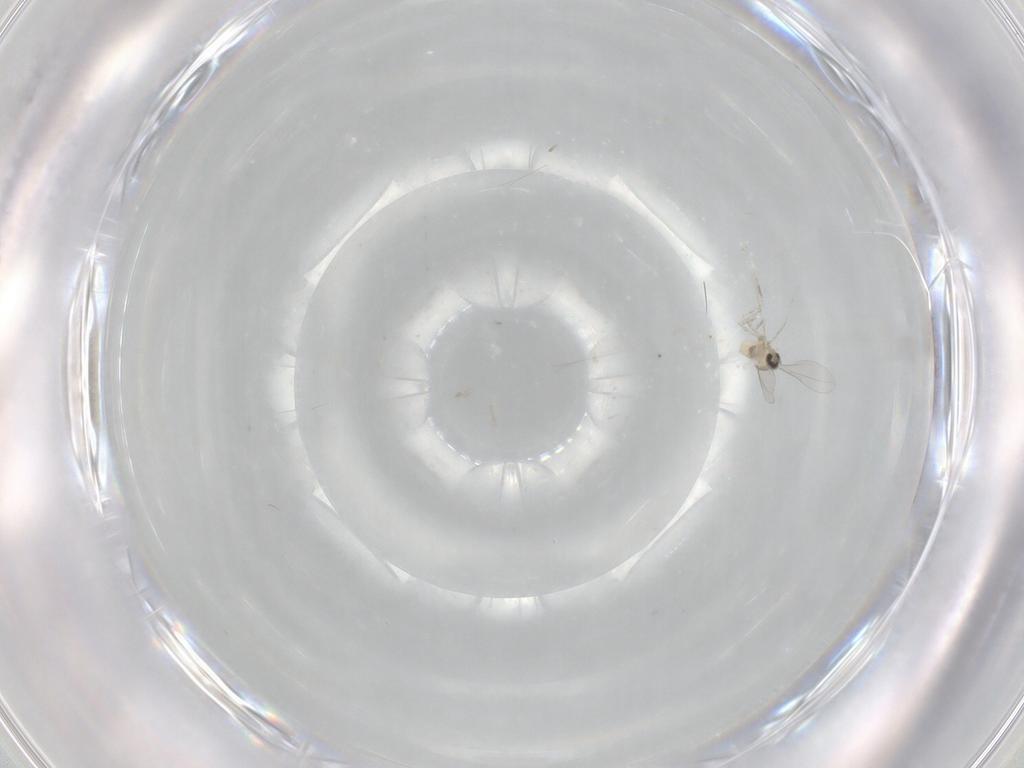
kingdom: Animalia
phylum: Arthropoda
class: Insecta
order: Diptera
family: Cecidomyiidae
